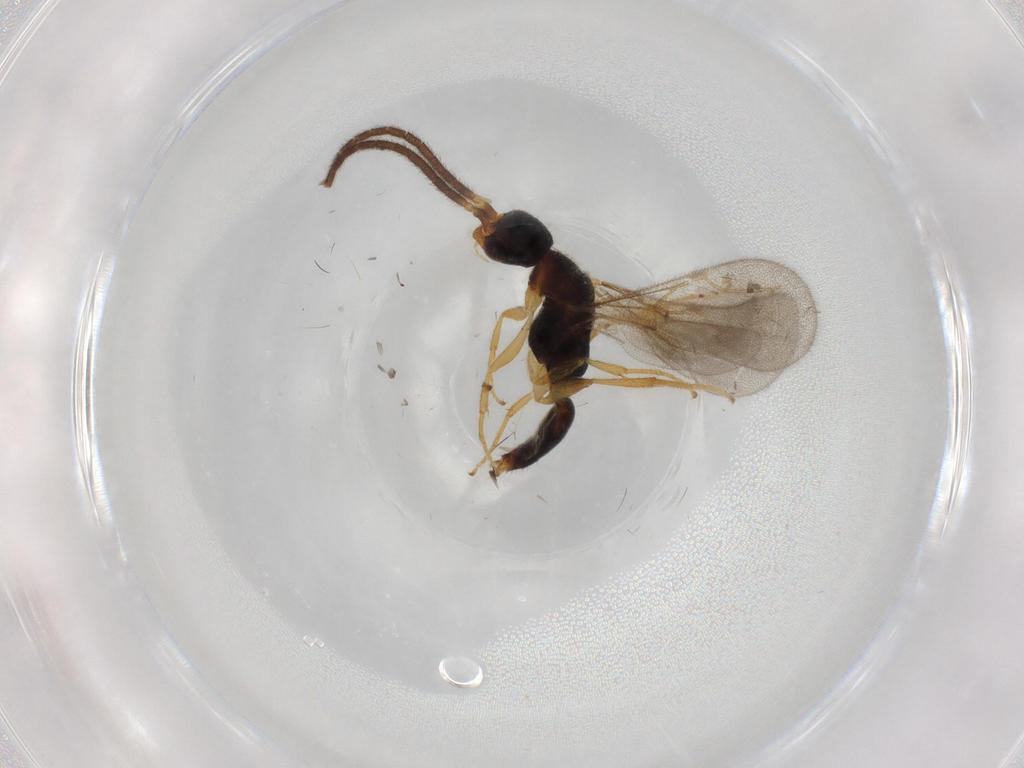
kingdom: Animalia
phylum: Arthropoda
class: Insecta
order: Hymenoptera
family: Bethylidae
